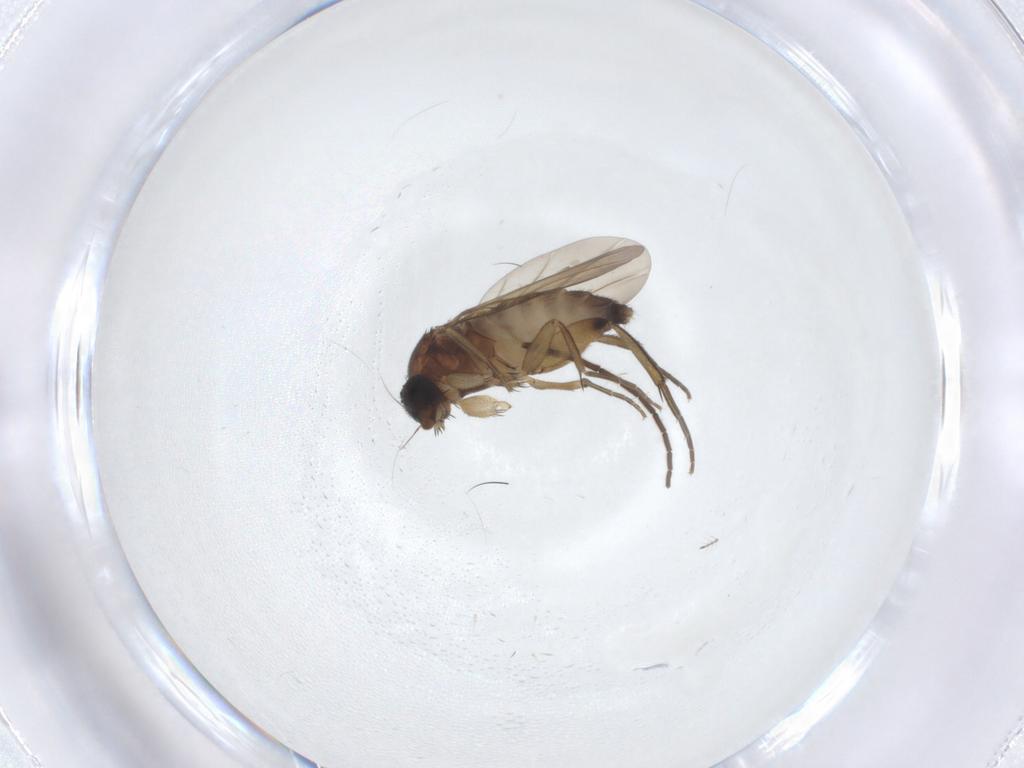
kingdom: Animalia
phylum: Arthropoda
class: Insecta
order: Diptera
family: Phoridae
